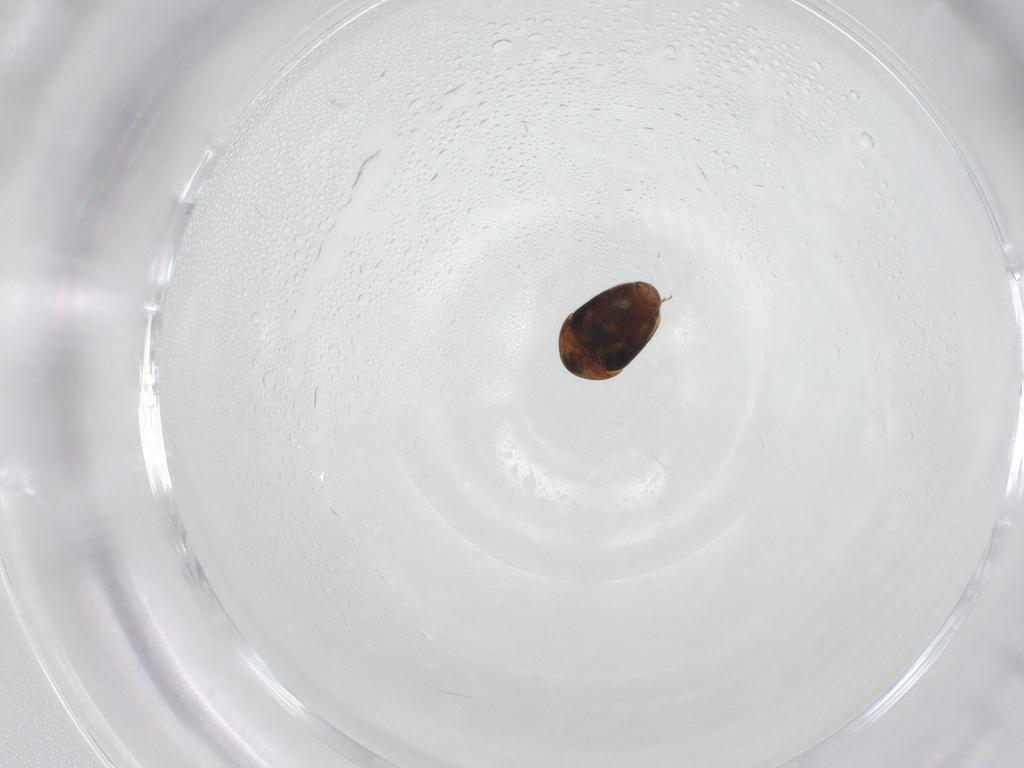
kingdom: Animalia
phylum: Arthropoda
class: Insecta
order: Coleoptera
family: Corylophidae
